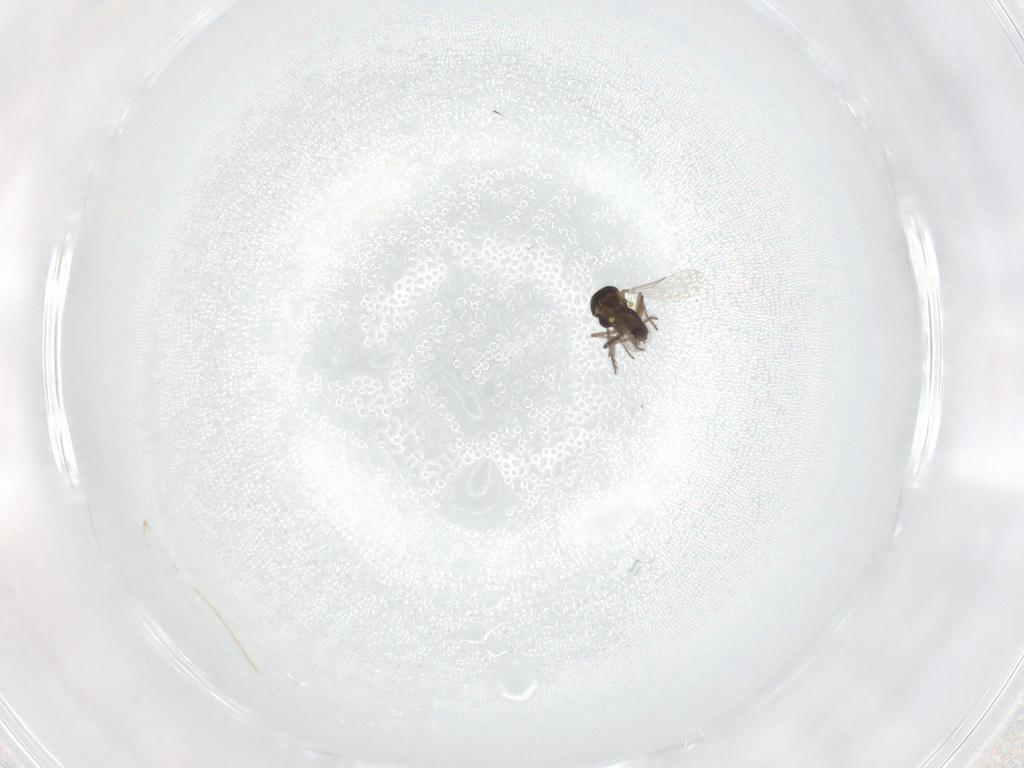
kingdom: Animalia
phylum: Arthropoda
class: Insecta
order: Diptera
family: Ceratopogonidae
